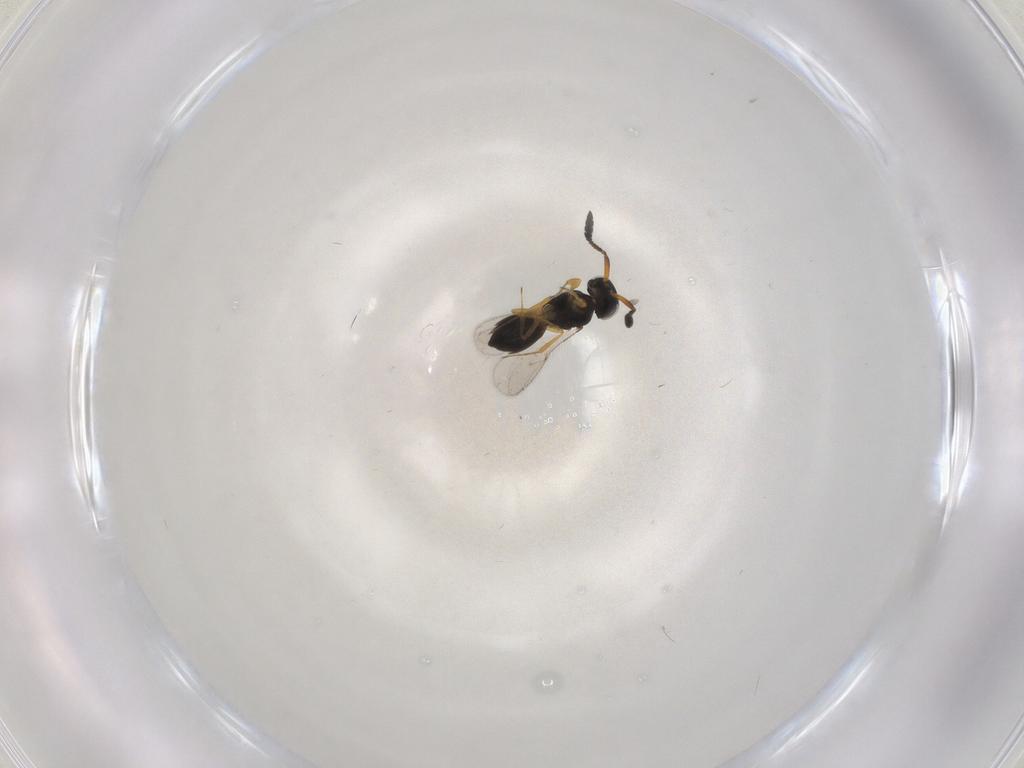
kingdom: Animalia
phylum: Arthropoda
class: Insecta
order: Hymenoptera
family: Scelionidae
